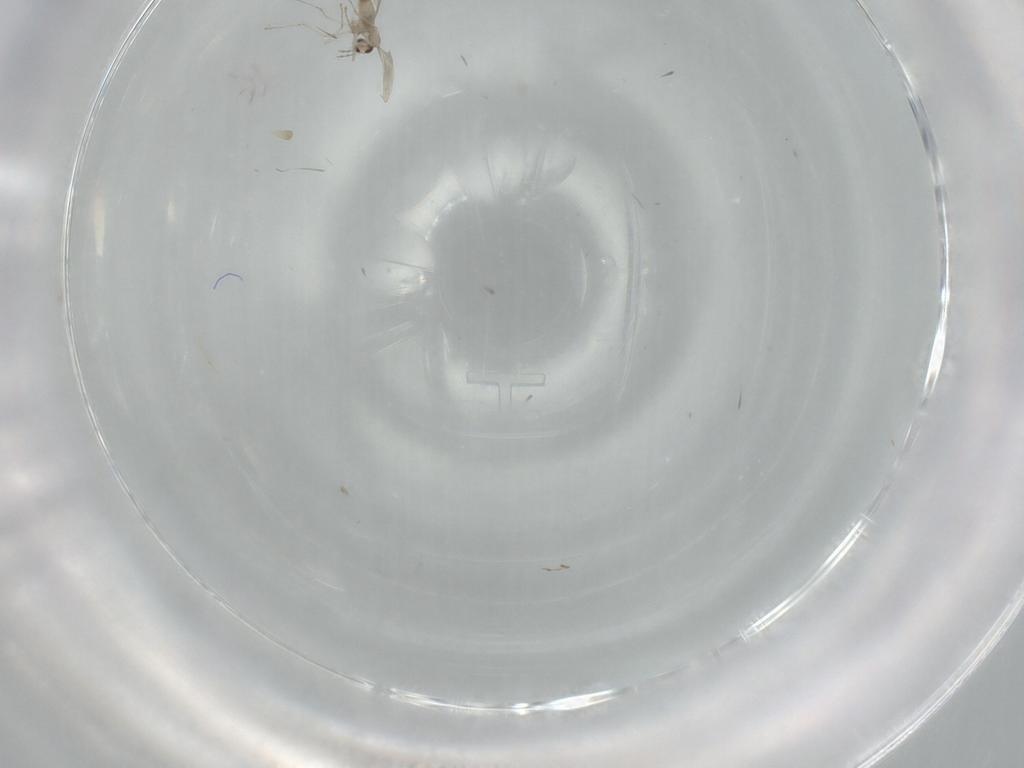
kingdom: Animalia
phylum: Arthropoda
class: Insecta
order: Diptera
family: Cecidomyiidae
